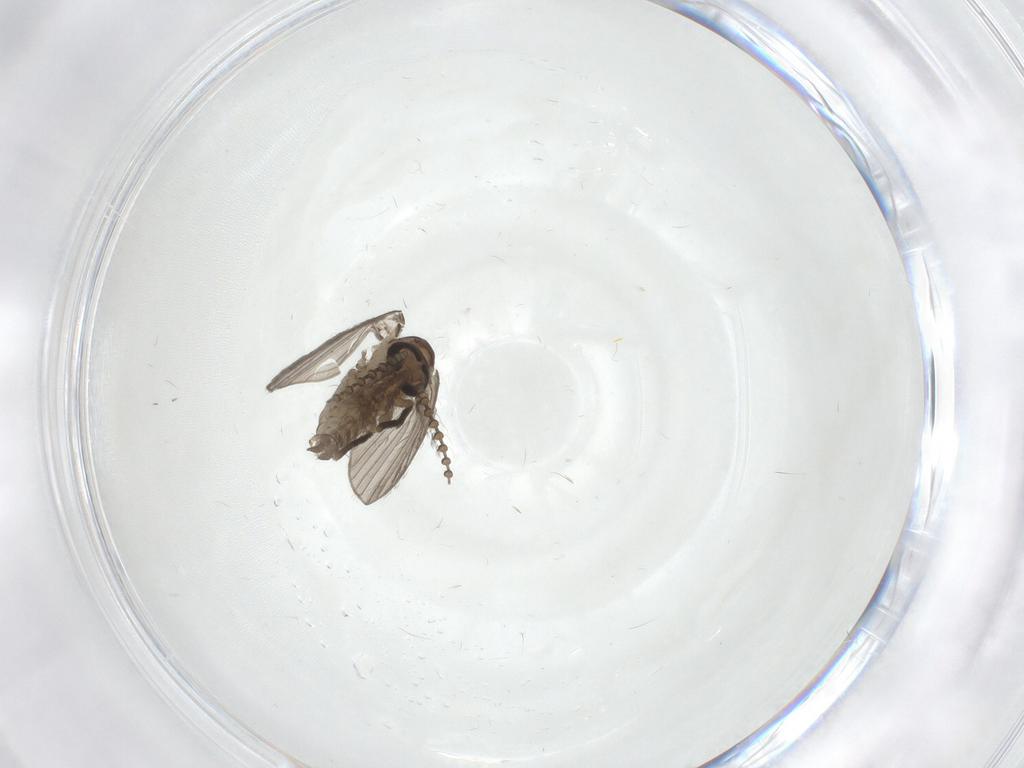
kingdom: Animalia
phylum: Arthropoda
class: Insecta
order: Diptera
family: Psychodidae
